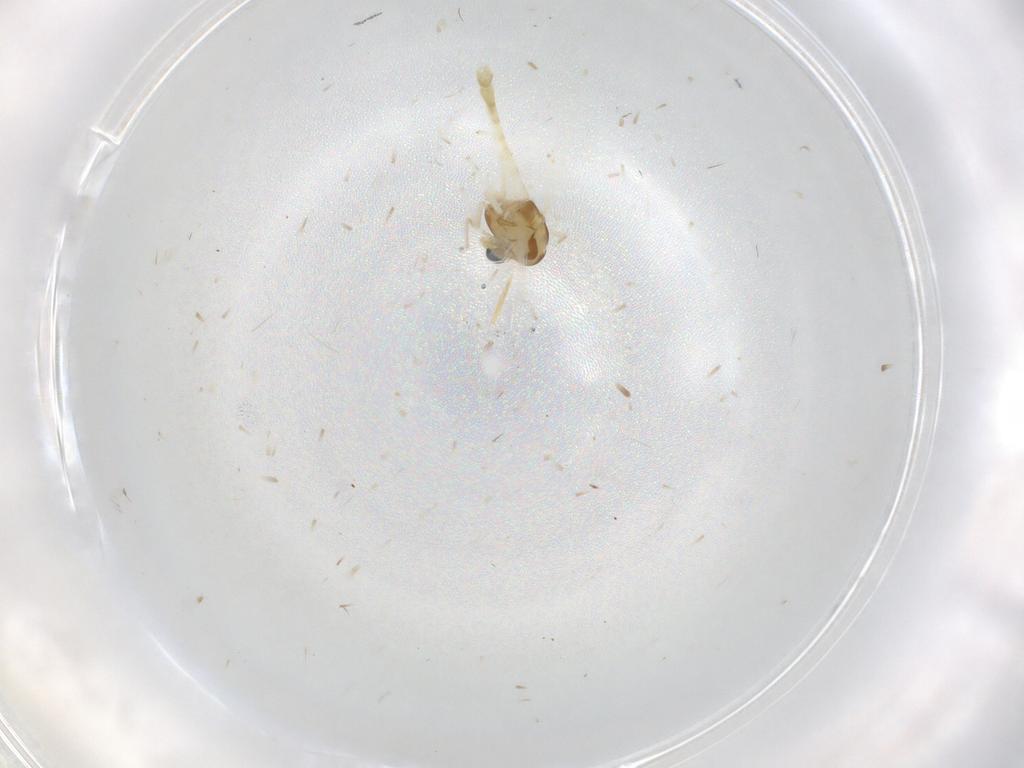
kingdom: Animalia
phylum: Arthropoda
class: Insecta
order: Diptera
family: Chironomidae
